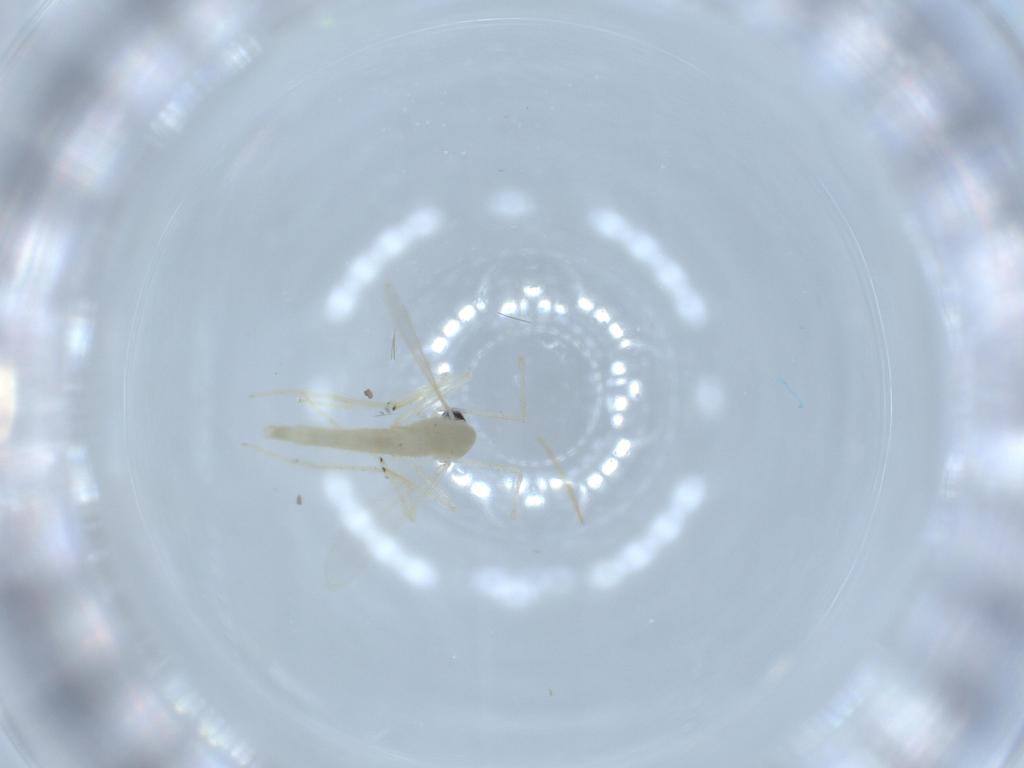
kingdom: Animalia
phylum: Arthropoda
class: Insecta
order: Diptera
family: Chironomidae
